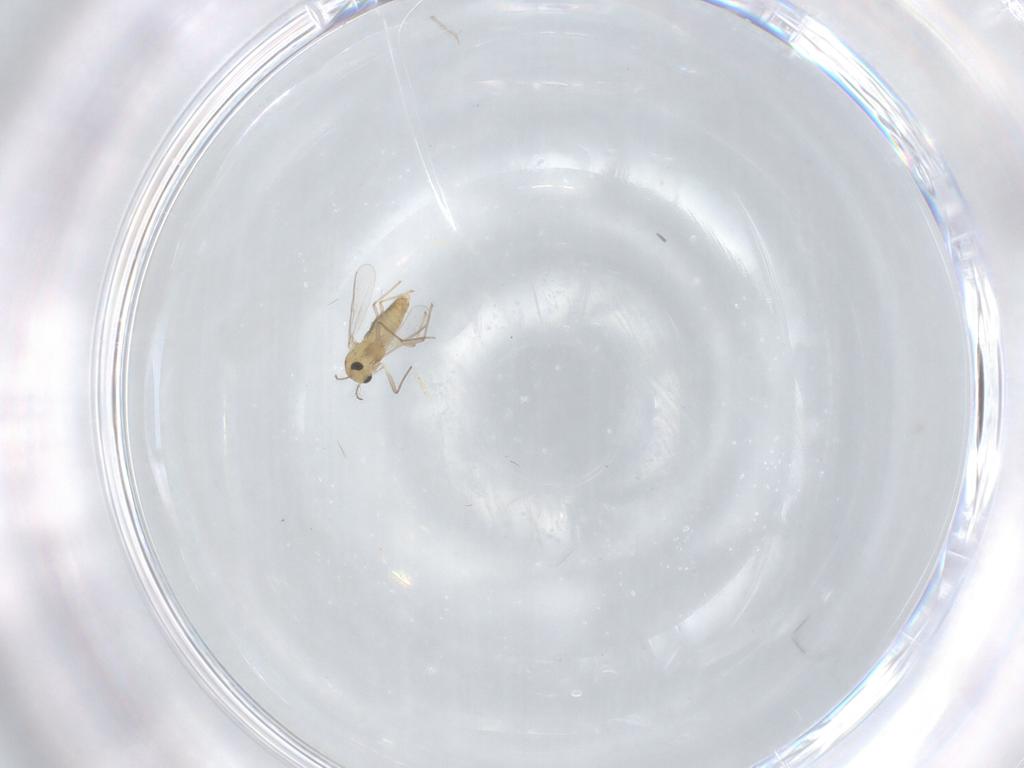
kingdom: Animalia
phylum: Arthropoda
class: Insecta
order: Diptera
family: Chironomidae
